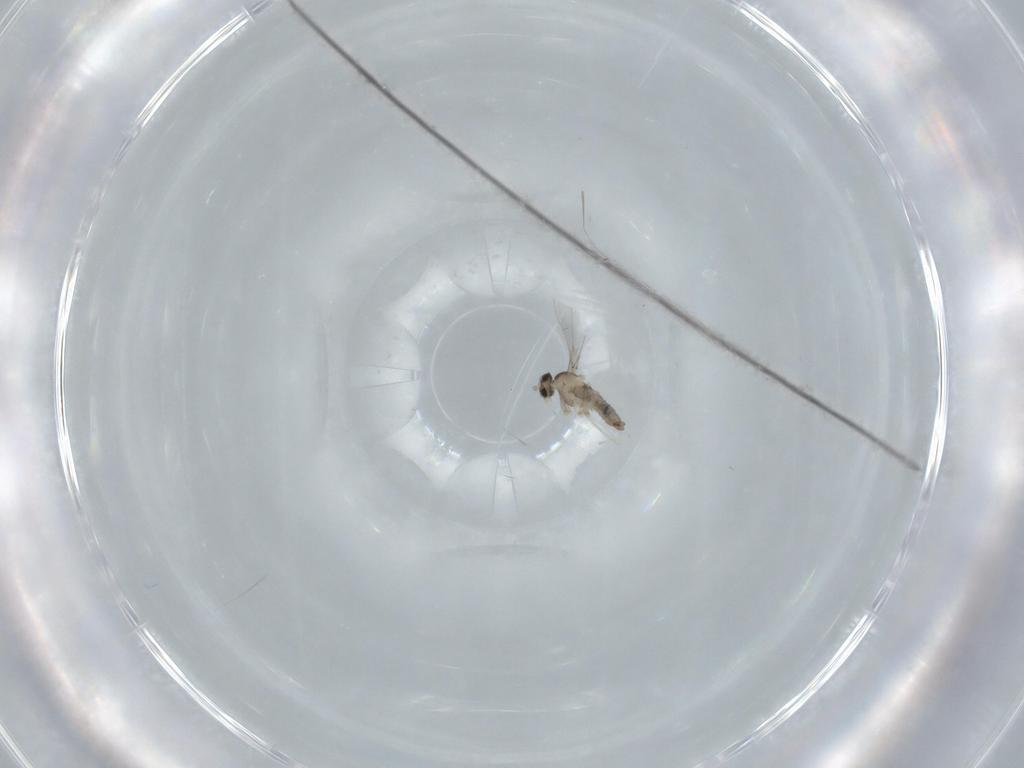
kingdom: Animalia
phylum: Arthropoda
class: Insecta
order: Diptera
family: Cecidomyiidae
